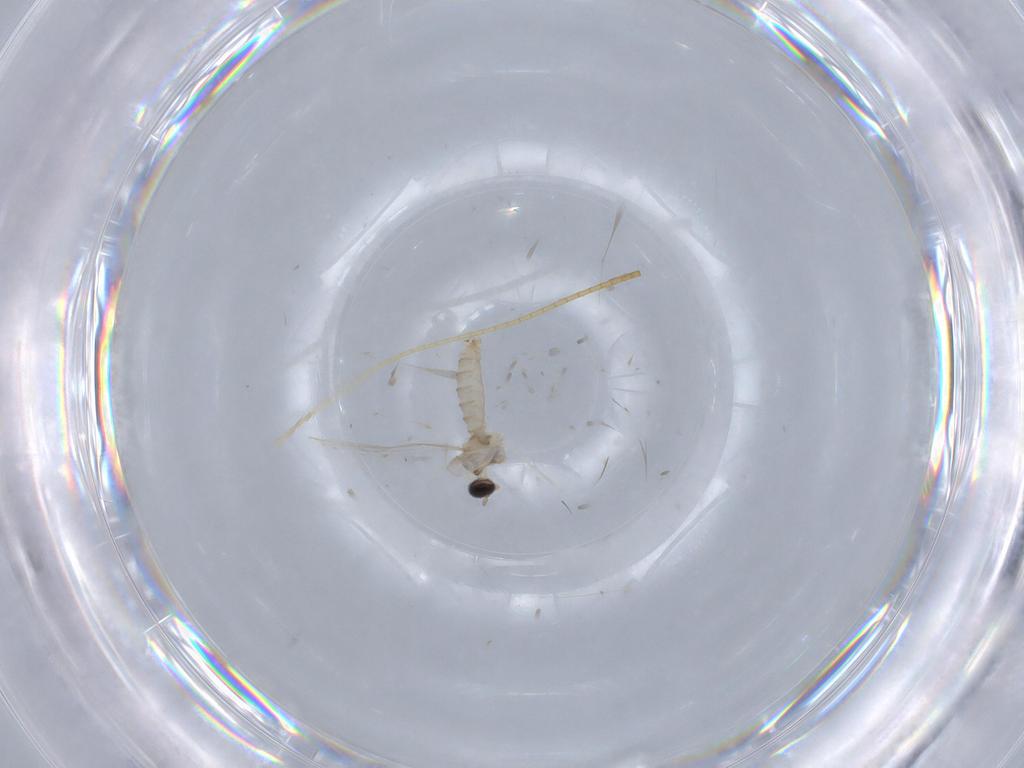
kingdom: Animalia
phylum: Arthropoda
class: Insecta
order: Diptera
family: Cecidomyiidae
